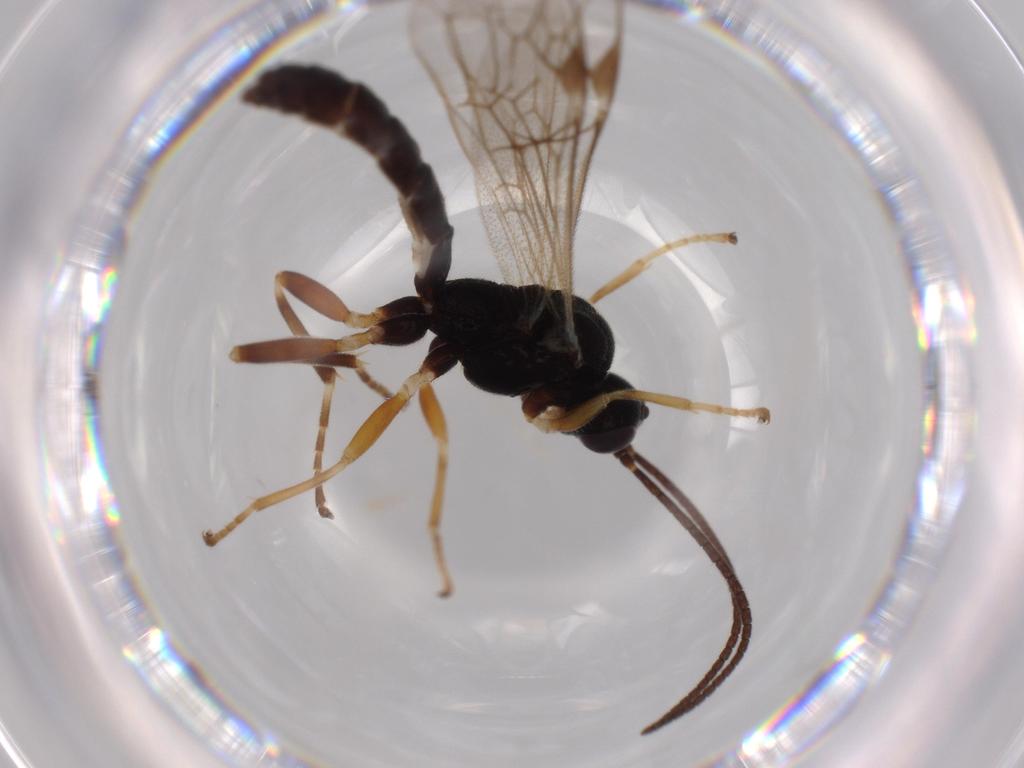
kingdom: Animalia
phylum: Arthropoda
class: Insecta
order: Hymenoptera
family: Ichneumonidae
